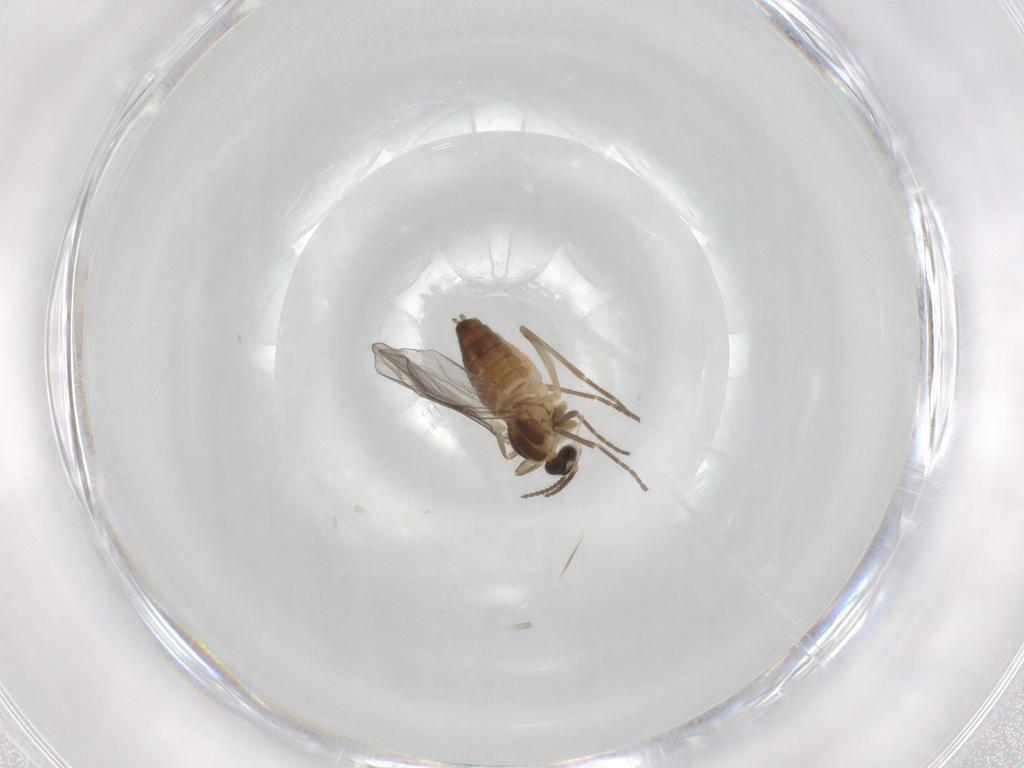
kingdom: Animalia
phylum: Arthropoda
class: Insecta
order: Diptera
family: Cecidomyiidae
